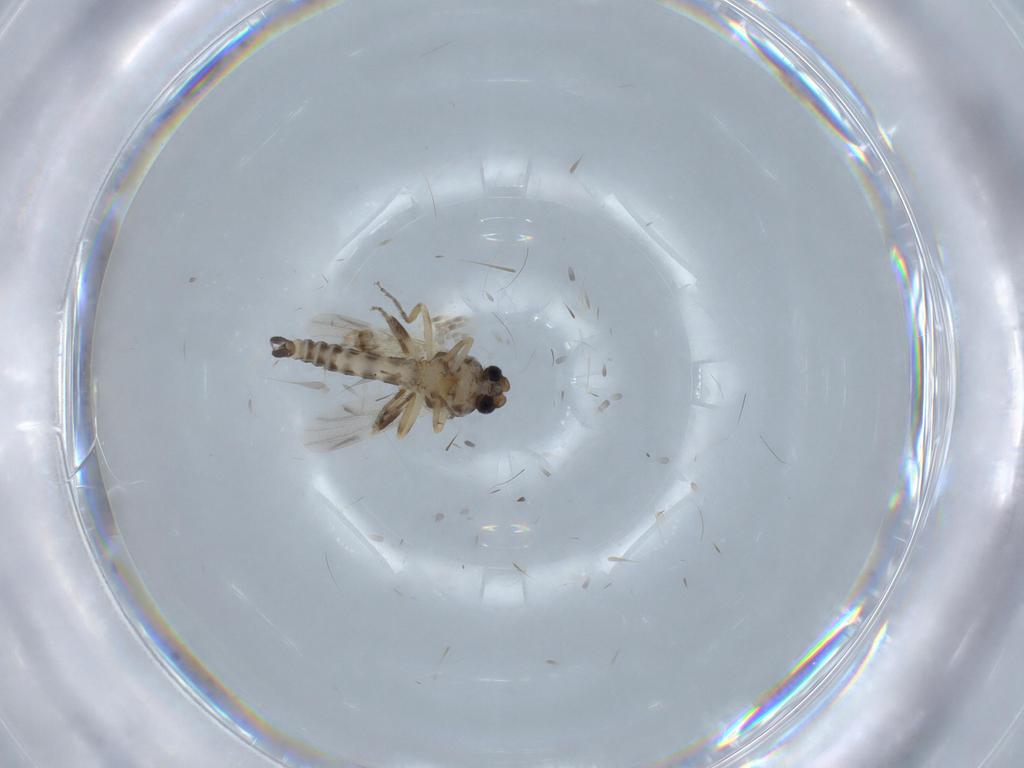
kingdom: Animalia
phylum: Arthropoda
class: Insecta
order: Diptera
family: Ceratopogonidae
